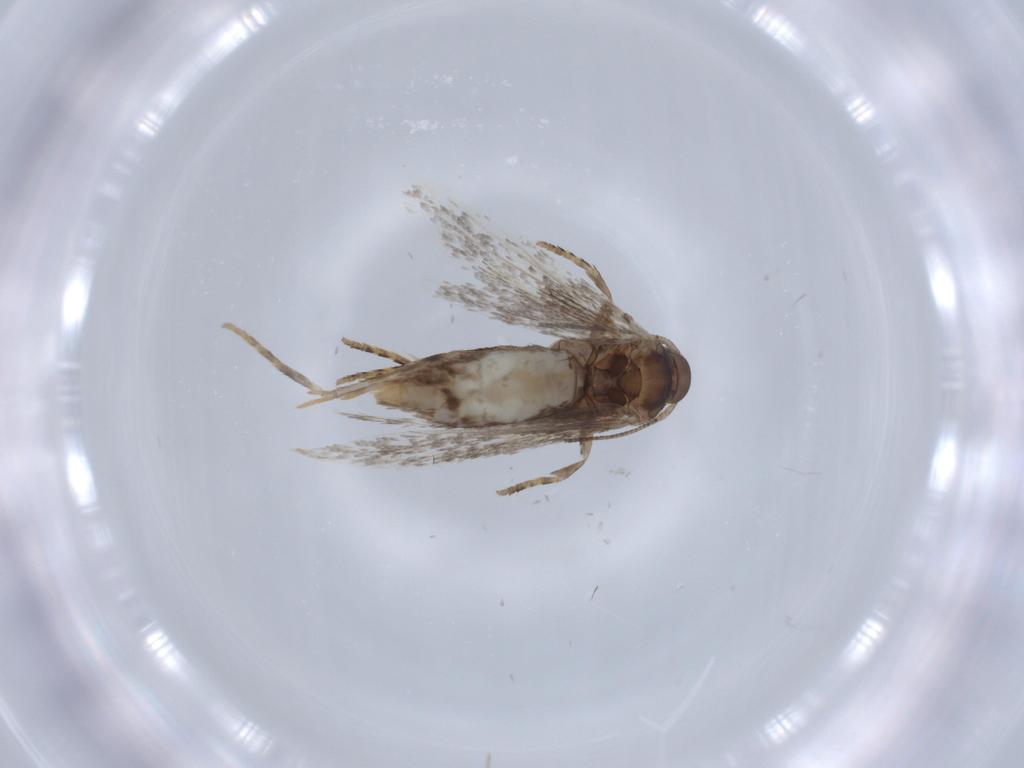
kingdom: Animalia
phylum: Arthropoda
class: Insecta
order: Lepidoptera
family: Elachistidae
